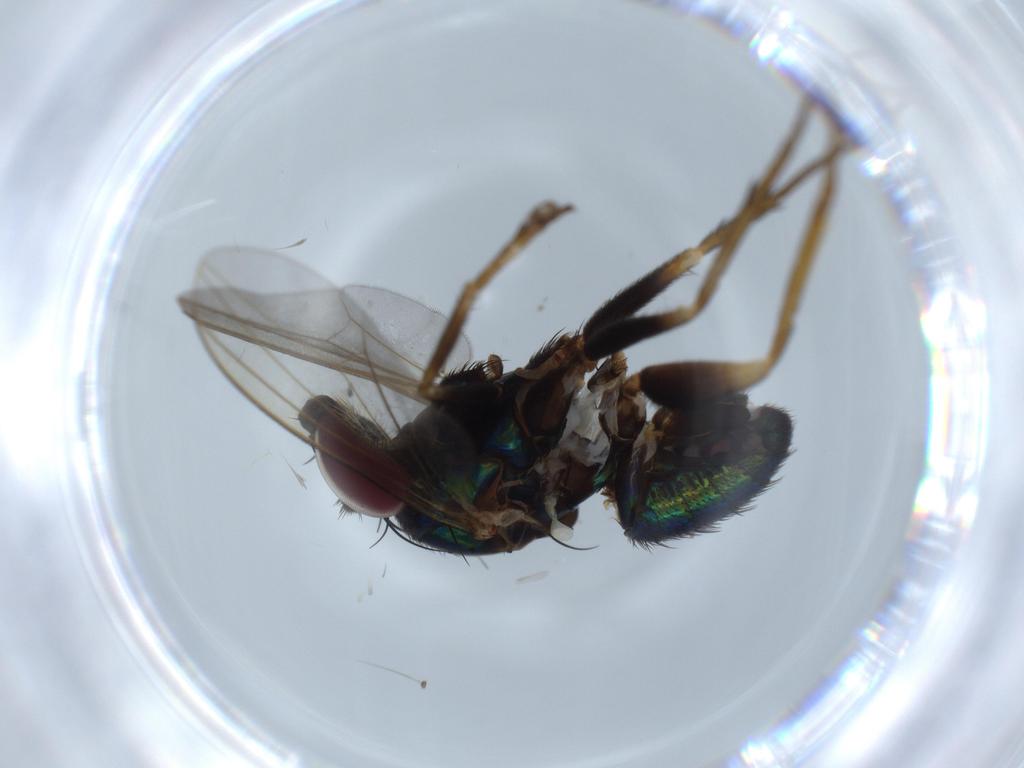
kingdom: Animalia
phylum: Arthropoda
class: Insecta
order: Diptera
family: Dolichopodidae
